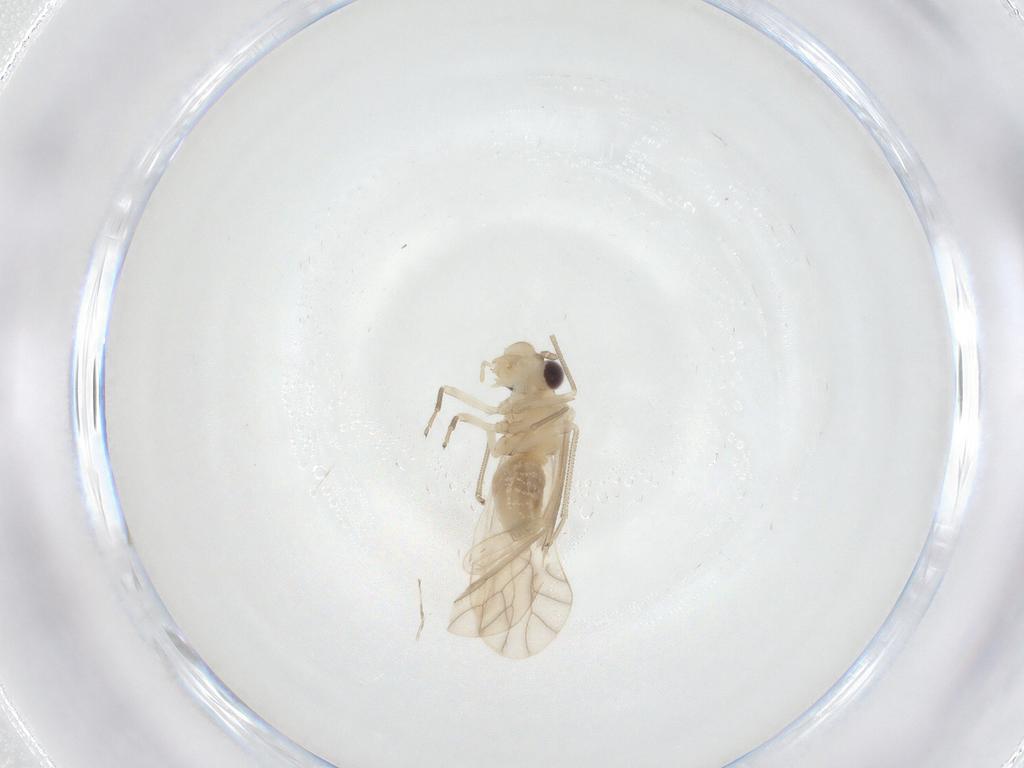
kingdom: Animalia
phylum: Arthropoda
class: Insecta
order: Psocodea
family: Caeciliusidae
